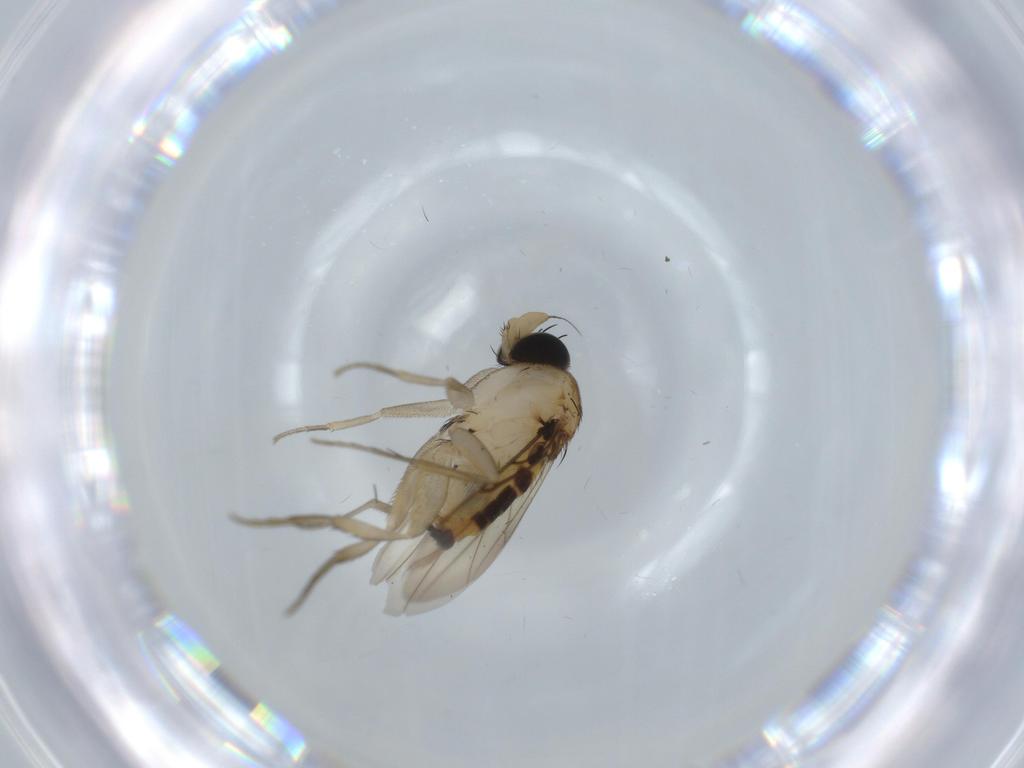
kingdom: Animalia
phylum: Arthropoda
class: Insecta
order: Diptera
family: Phoridae
